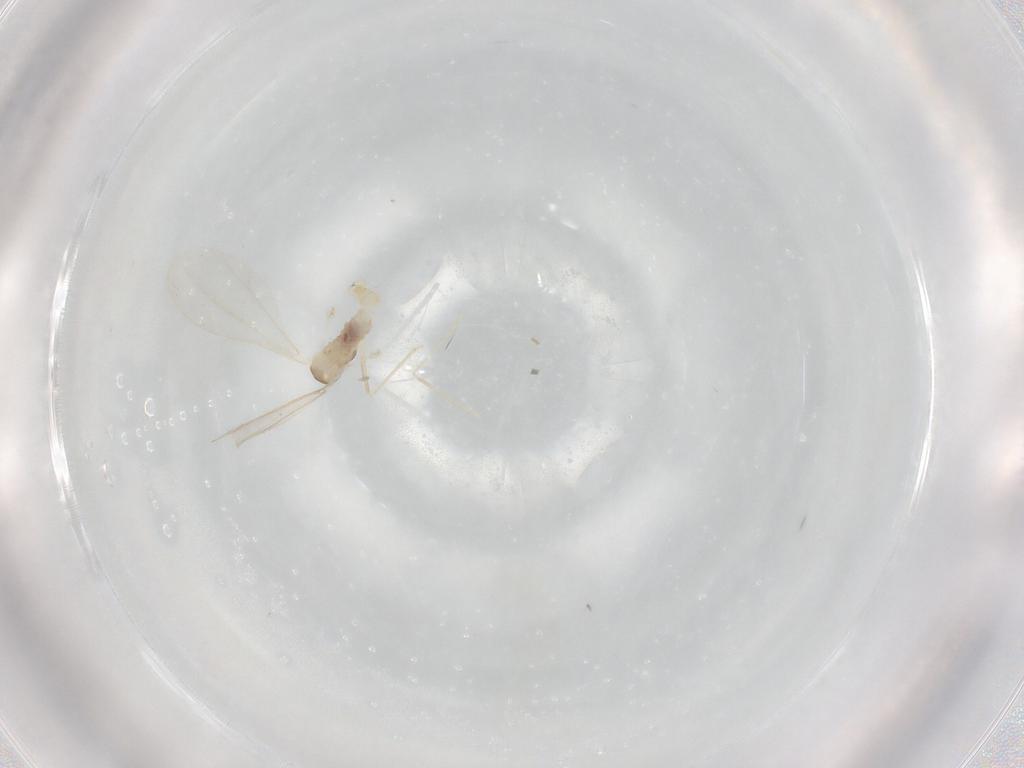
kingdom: Animalia
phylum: Arthropoda
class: Insecta
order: Diptera
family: Cecidomyiidae
